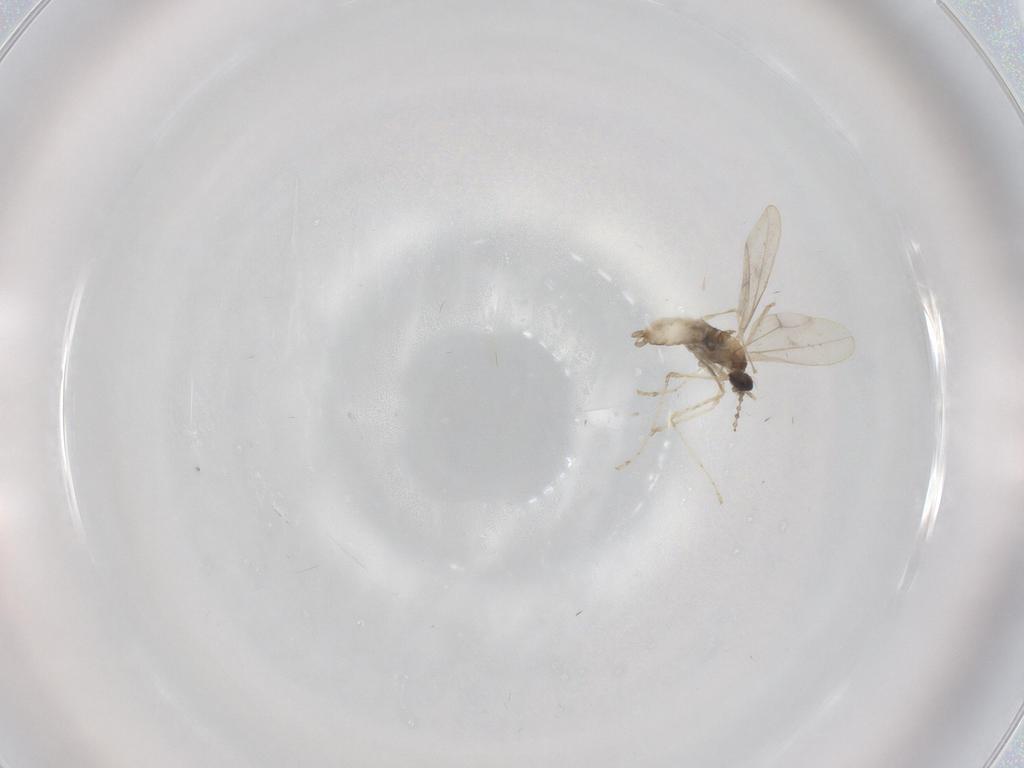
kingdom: Animalia
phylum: Arthropoda
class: Insecta
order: Diptera
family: Cecidomyiidae
